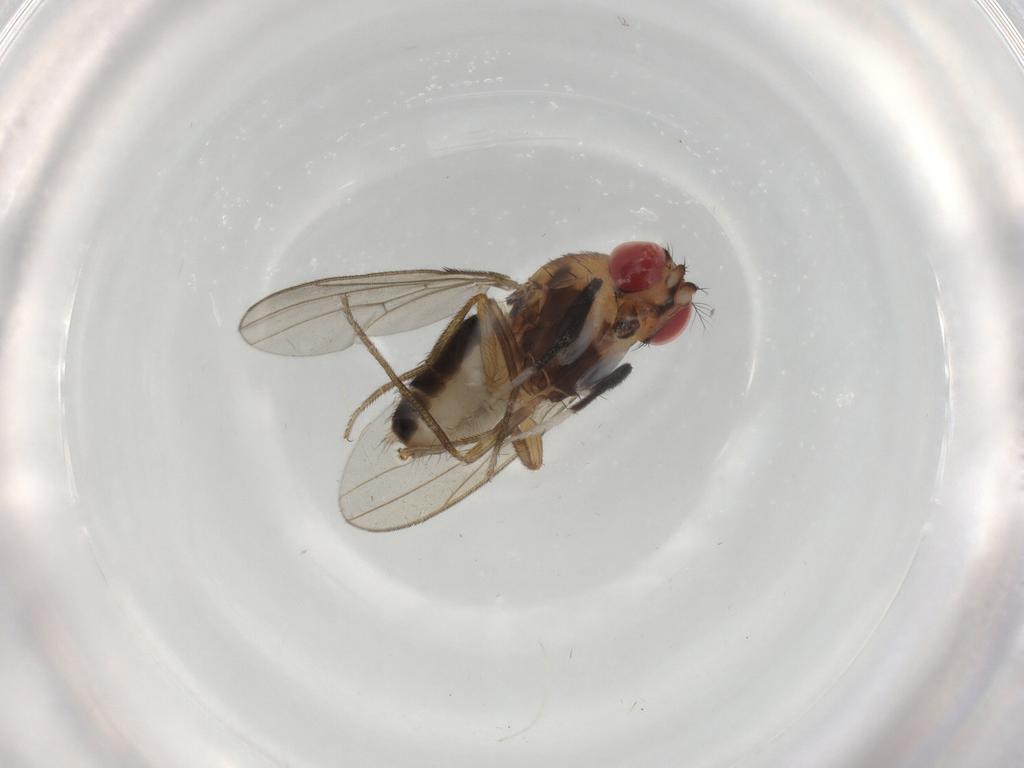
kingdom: Animalia
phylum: Arthropoda
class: Insecta
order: Diptera
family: Drosophilidae
